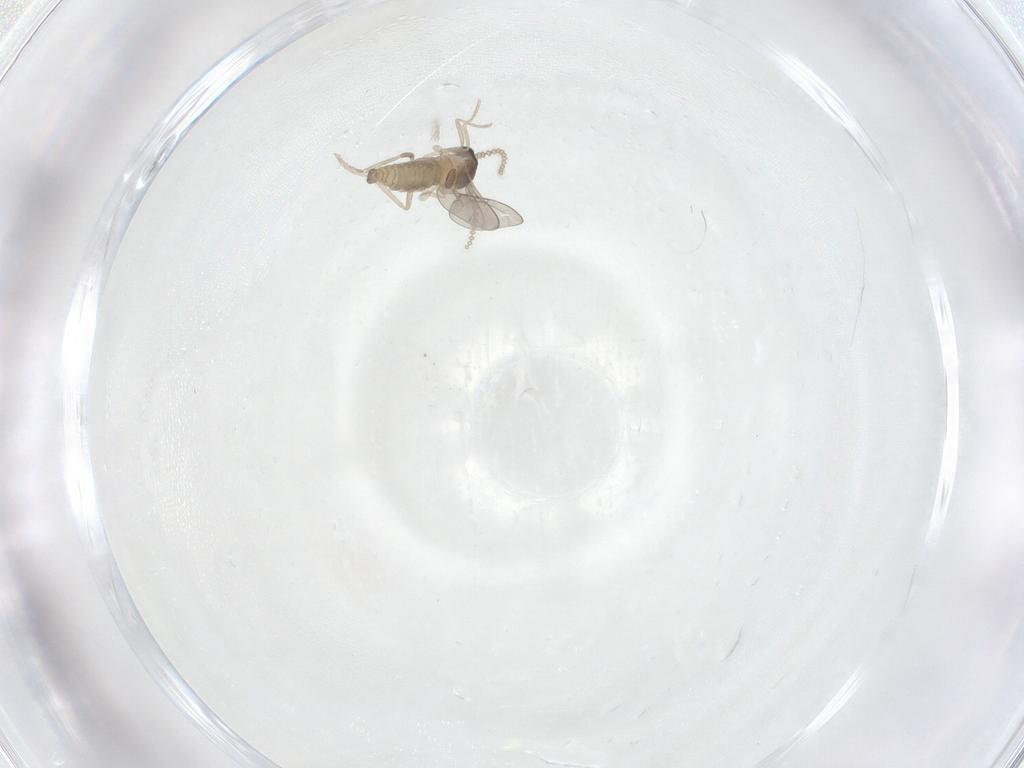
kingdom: Animalia
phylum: Arthropoda
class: Insecta
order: Diptera
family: Cecidomyiidae
